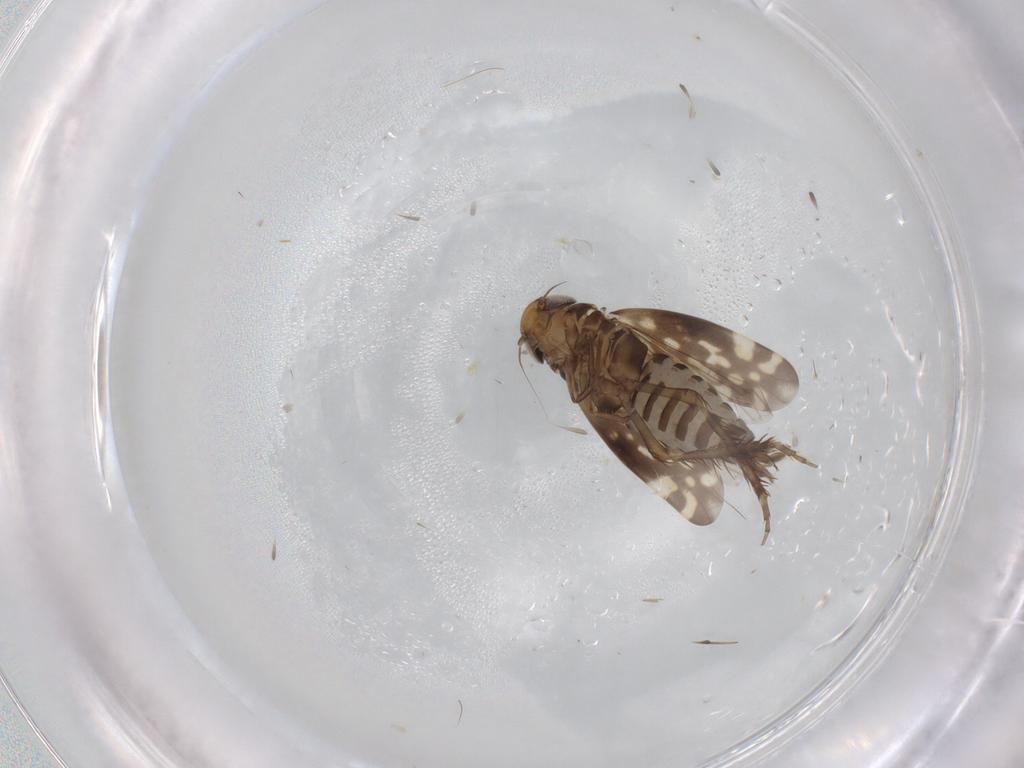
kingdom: Animalia
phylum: Arthropoda
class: Insecta
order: Hemiptera
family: Cicadellidae
